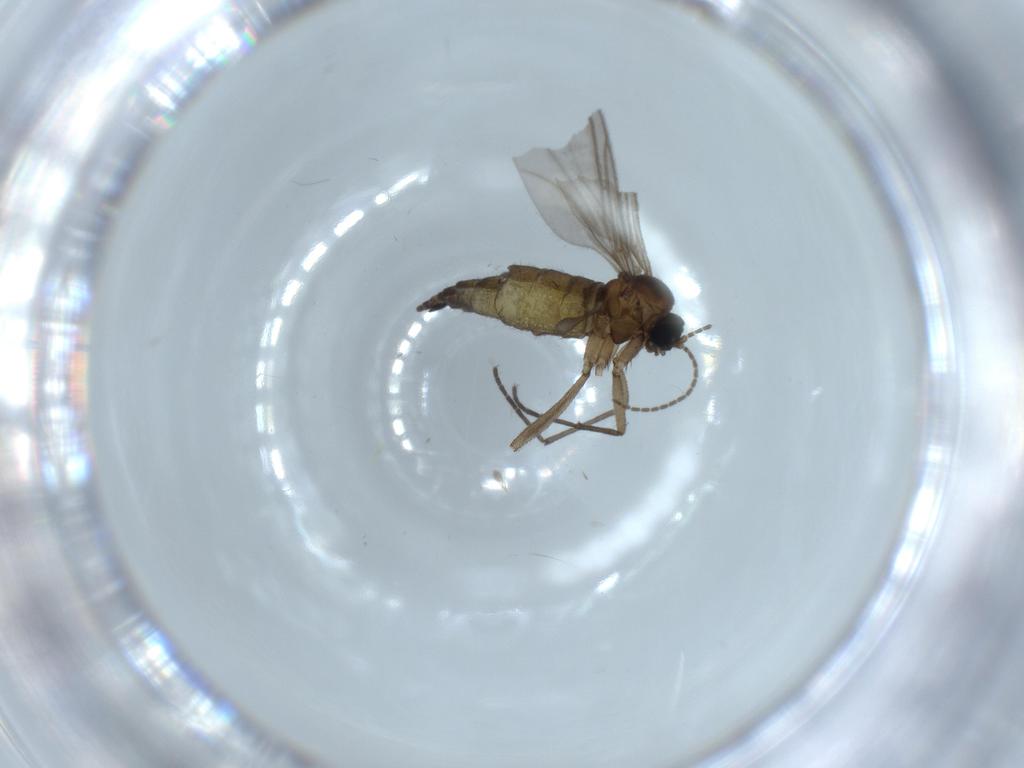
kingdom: Animalia
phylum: Arthropoda
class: Insecta
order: Diptera
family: Sciaridae
